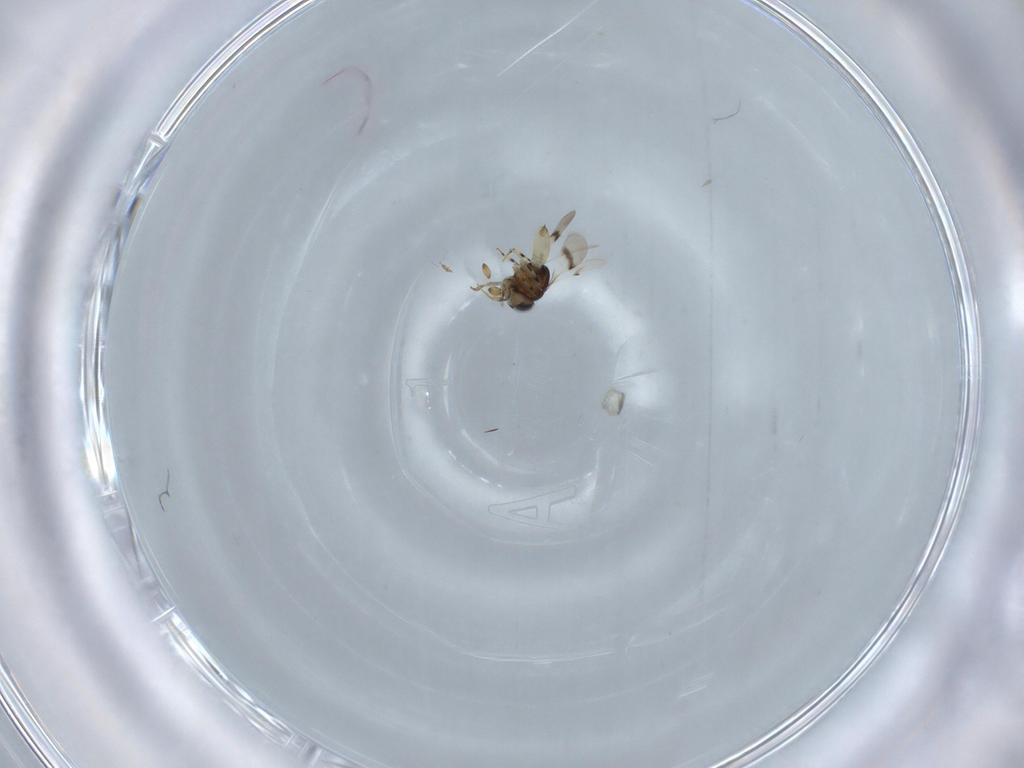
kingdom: Animalia
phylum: Arthropoda
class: Insecta
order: Hymenoptera
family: Scelionidae
